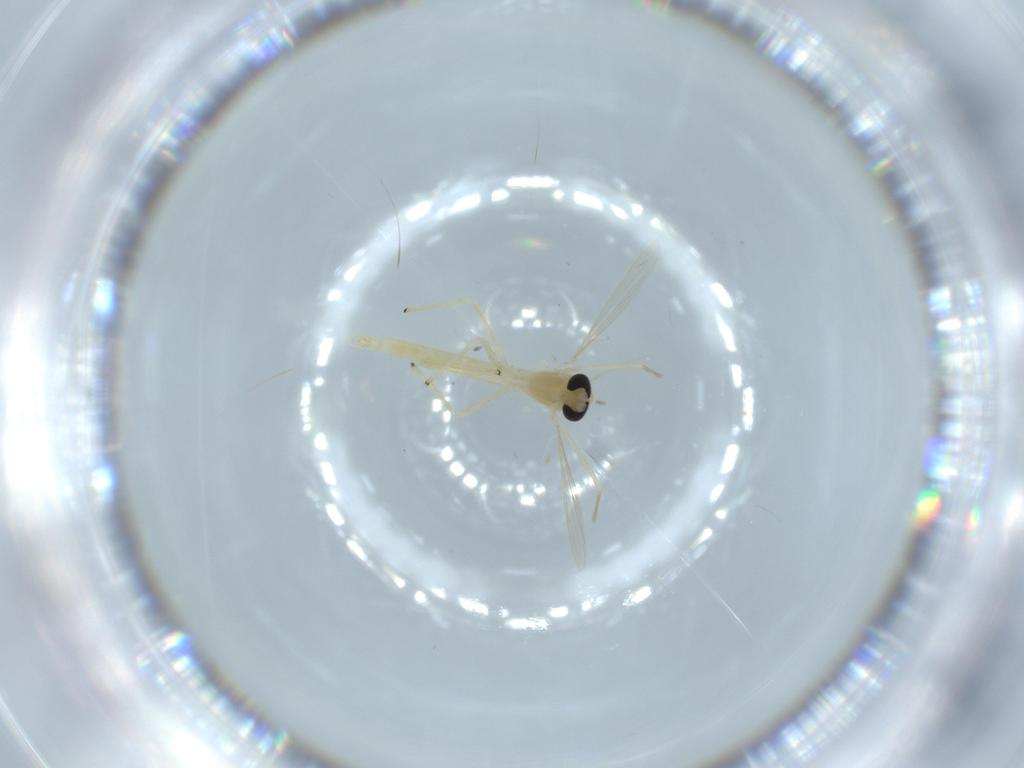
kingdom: Animalia
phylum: Arthropoda
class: Insecta
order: Diptera
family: Chironomidae
